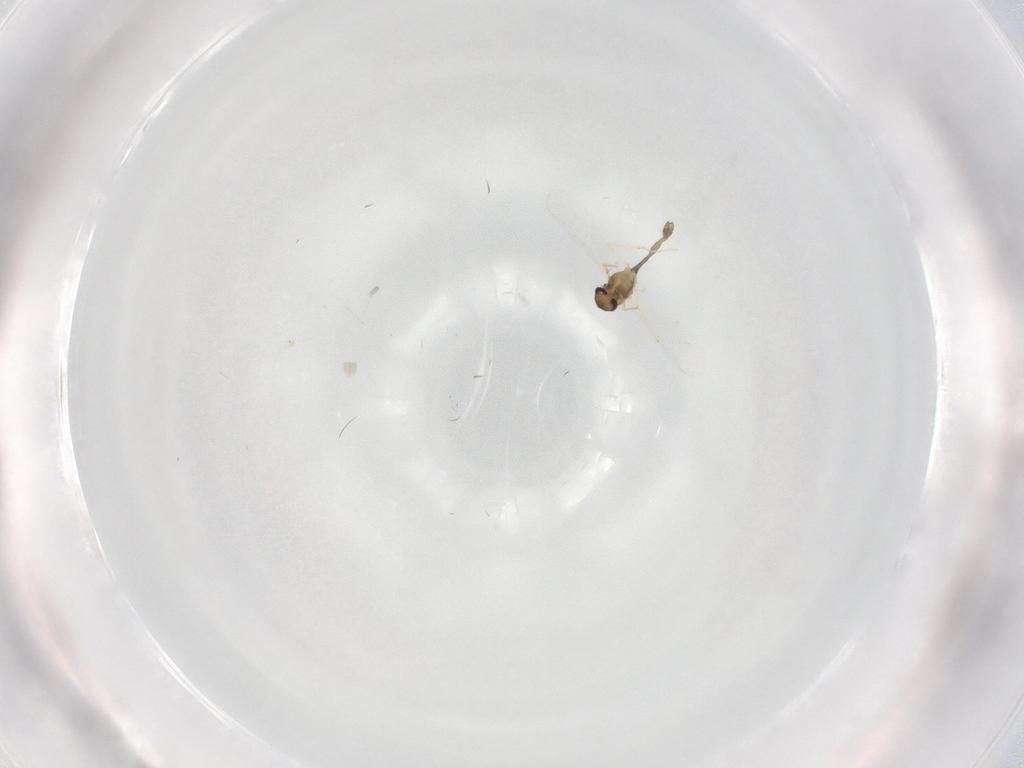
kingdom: Animalia
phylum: Arthropoda
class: Insecta
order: Diptera
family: Chironomidae
